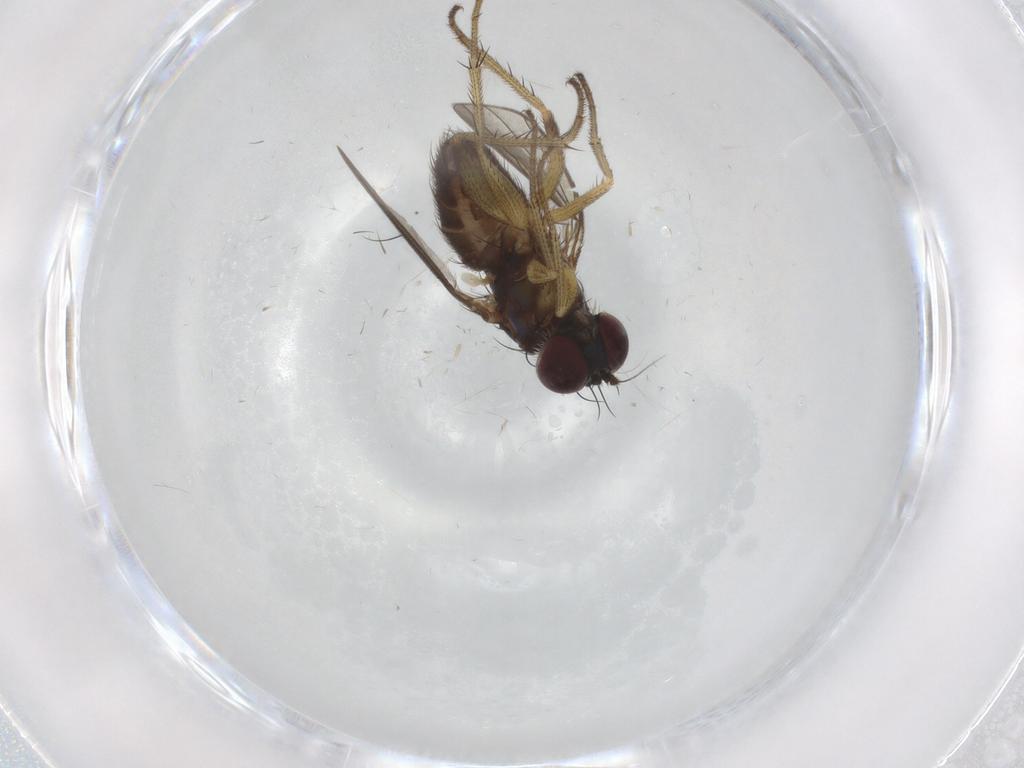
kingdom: Animalia
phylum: Arthropoda
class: Insecta
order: Diptera
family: Dolichopodidae
